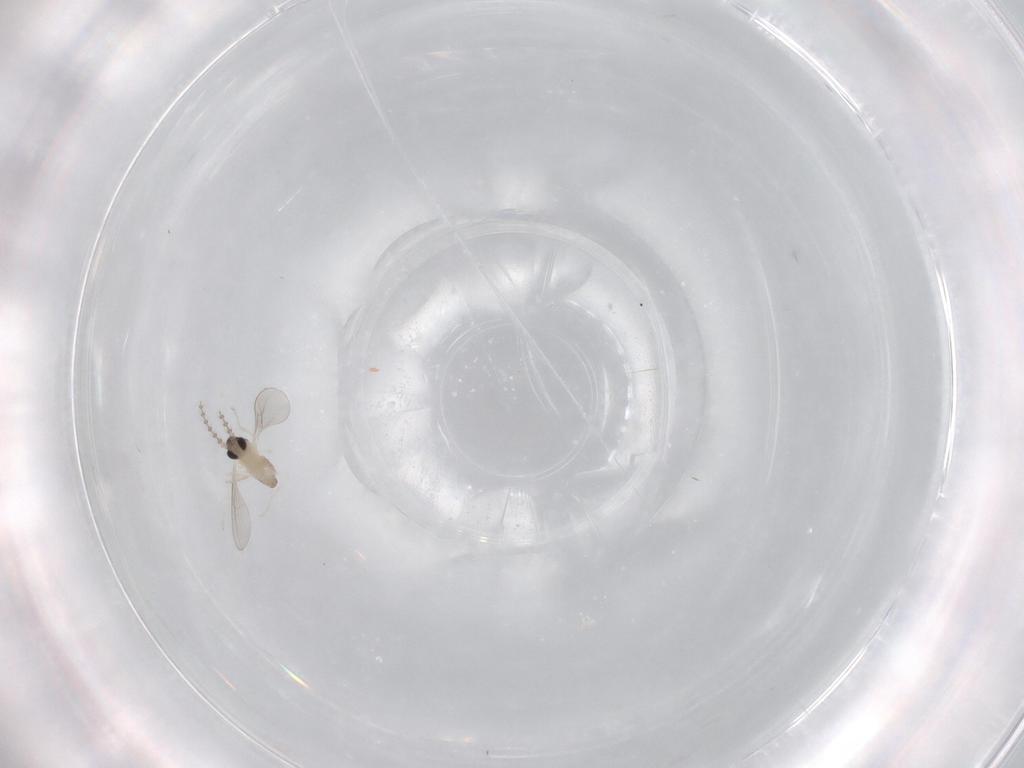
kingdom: Animalia
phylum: Arthropoda
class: Insecta
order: Diptera
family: Cecidomyiidae
